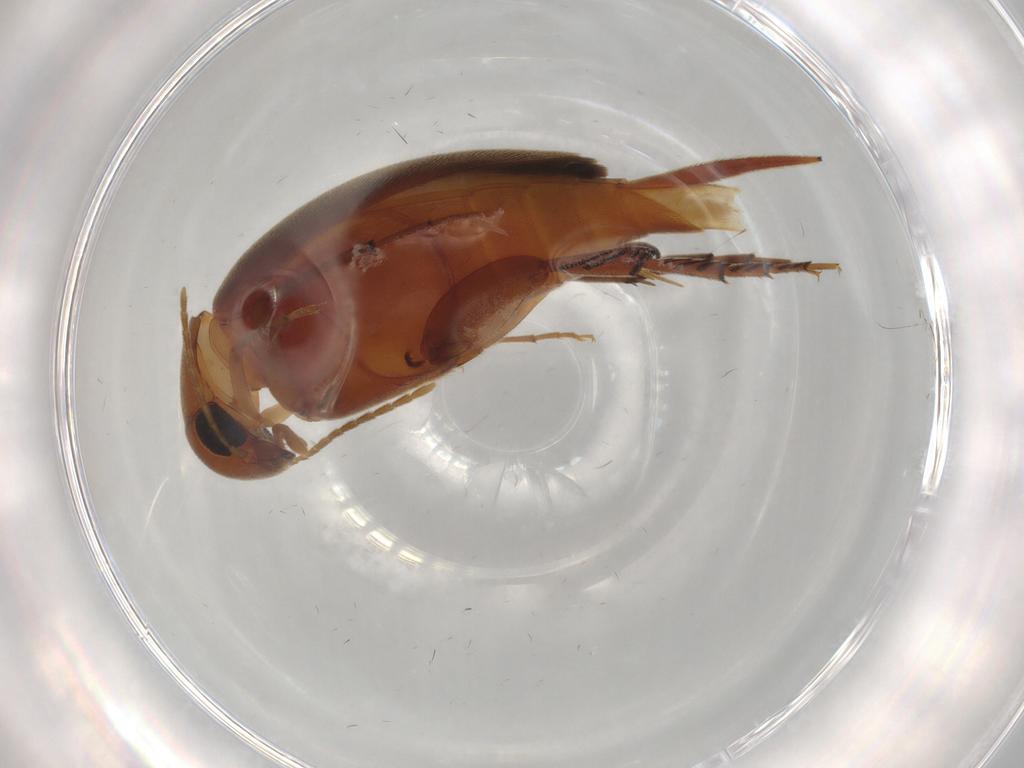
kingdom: Animalia
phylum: Arthropoda
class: Insecta
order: Coleoptera
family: Mordellidae
